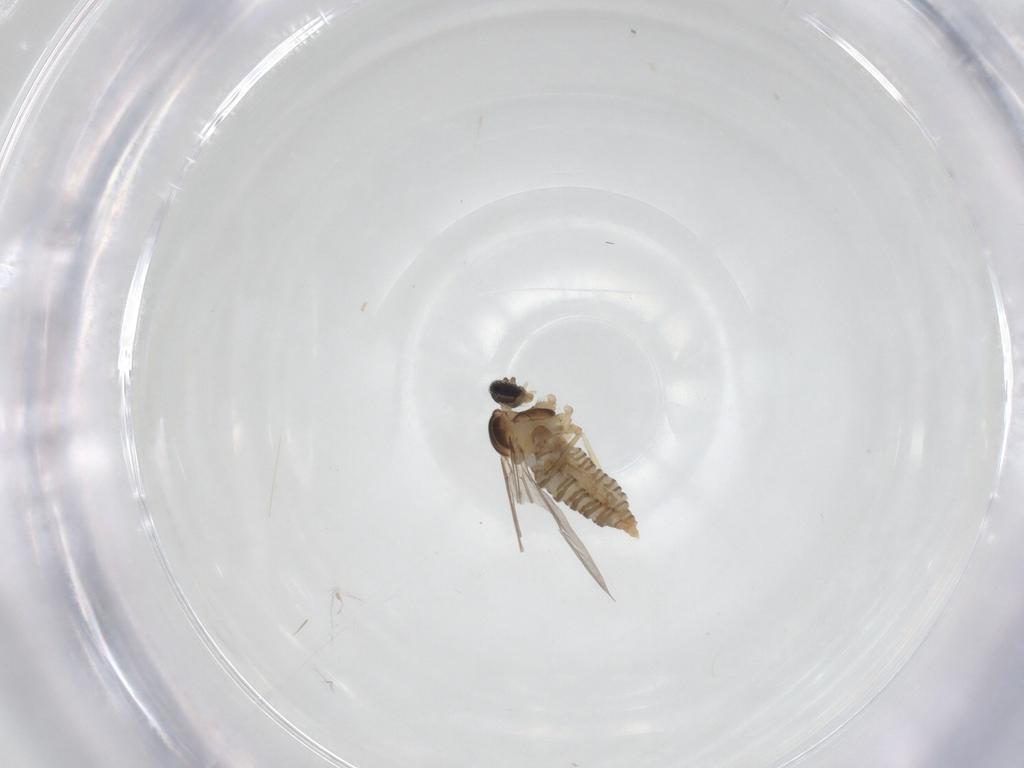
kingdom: Animalia
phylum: Arthropoda
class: Insecta
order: Diptera
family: Cecidomyiidae
